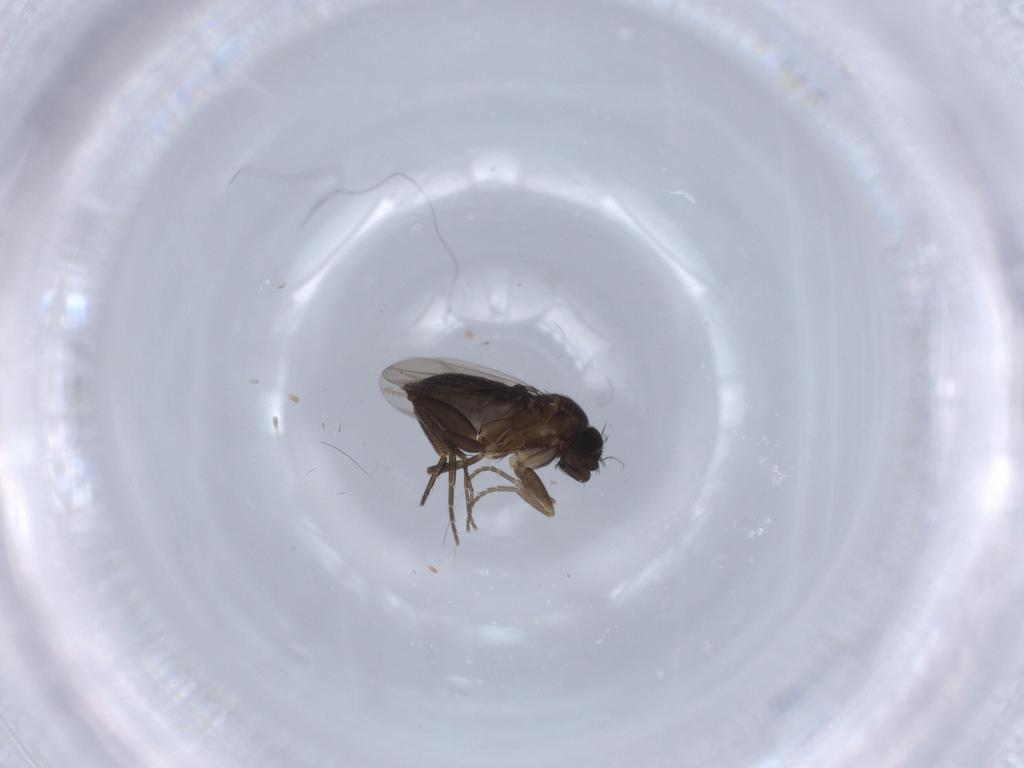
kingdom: Animalia
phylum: Arthropoda
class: Insecta
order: Diptera
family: Phoridae
